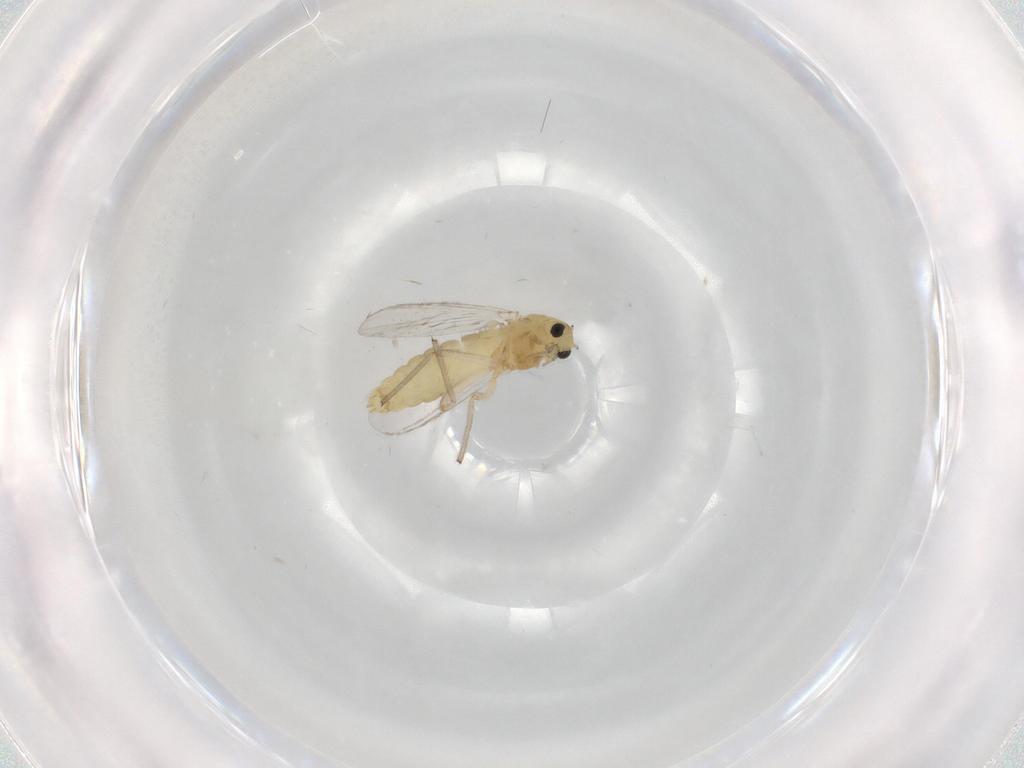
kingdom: Animalia
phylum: Arthropoda
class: Insecta
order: Diptera
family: Chironomidae
